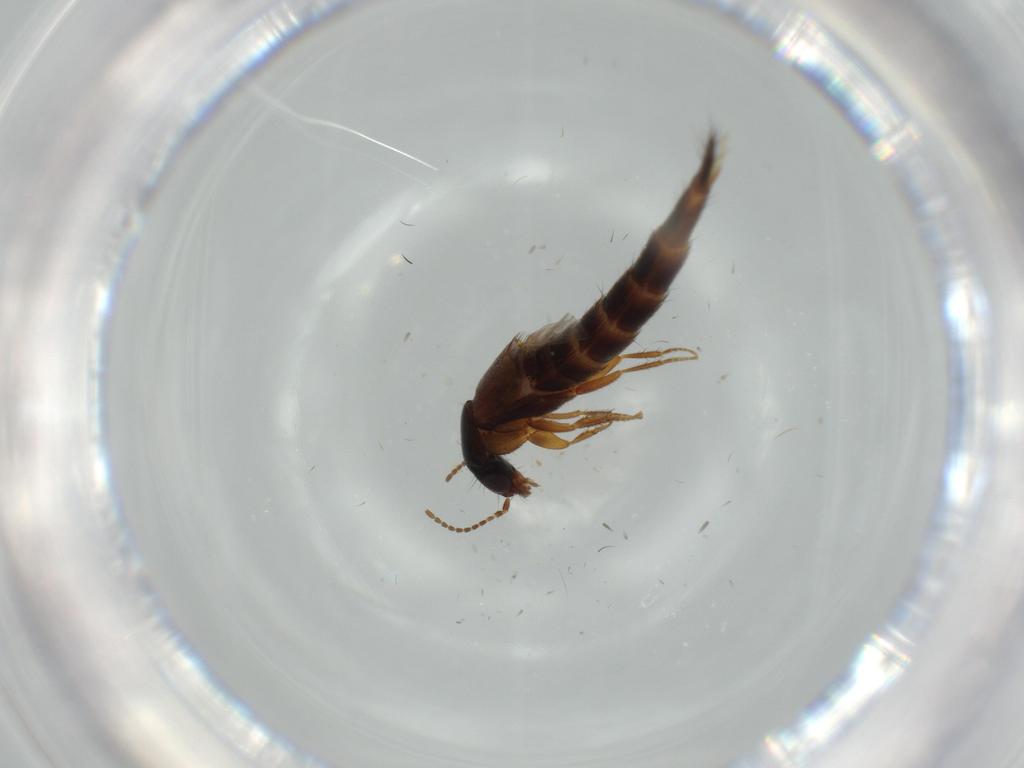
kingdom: Animalia
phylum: Arthropoda
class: Insecta
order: Coleoptera
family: Staphylinidae
